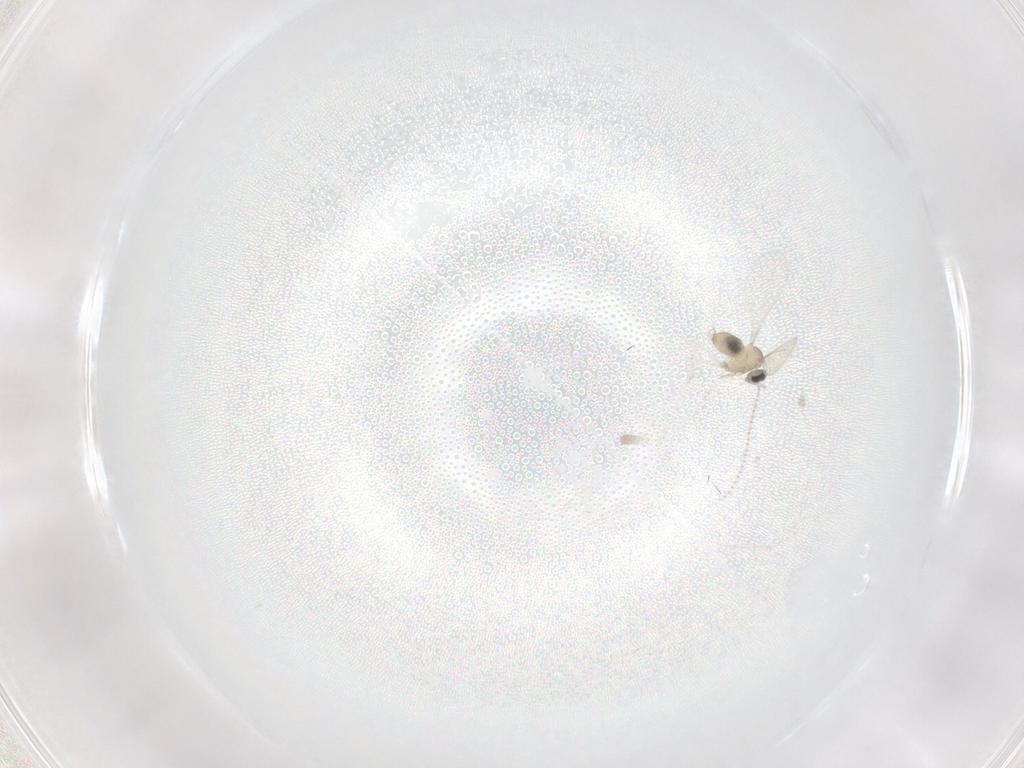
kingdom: Animalia
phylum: Arthropoda
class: Insecta
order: Diptera
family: Cecidomyiidae
